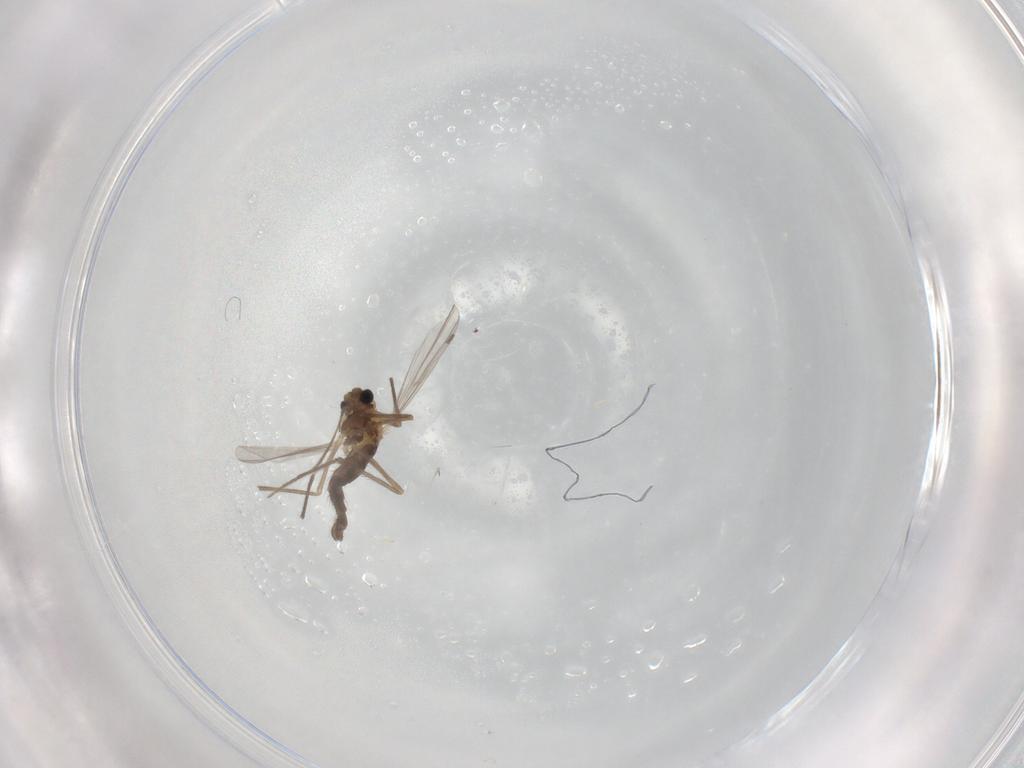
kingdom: Animalia
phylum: Arthropoda
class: Insecta
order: Diptera
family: Chironomidae
